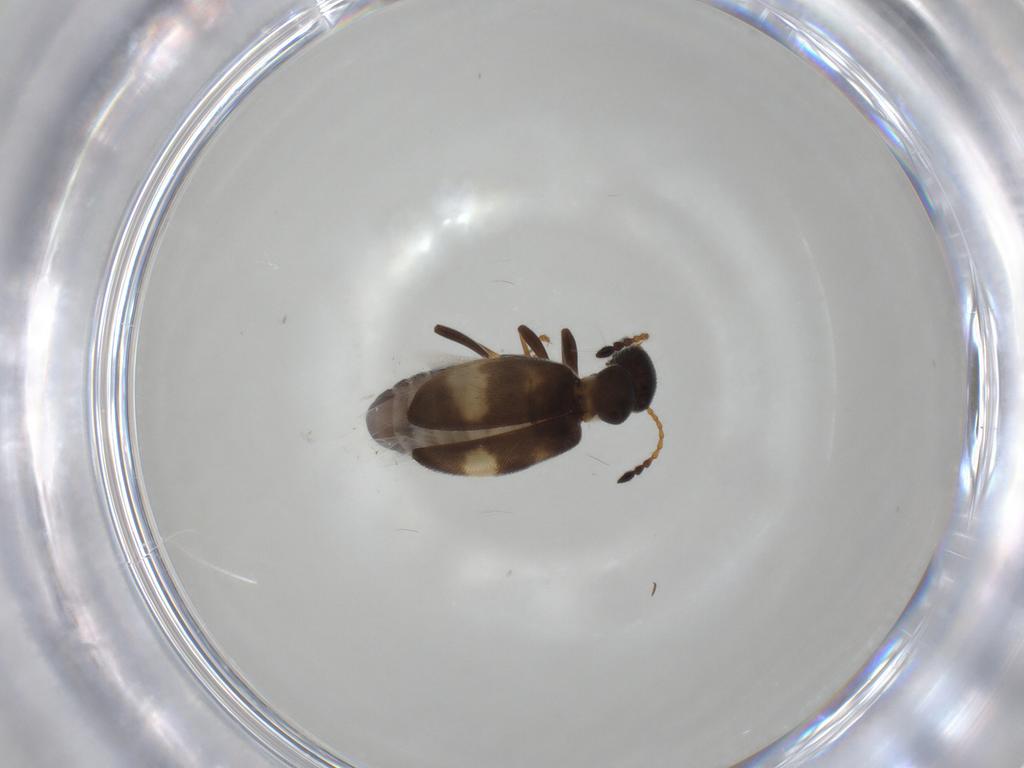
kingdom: Animalia
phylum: Arthropoda
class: Insecta
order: Coleoptera
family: Anthicidae
